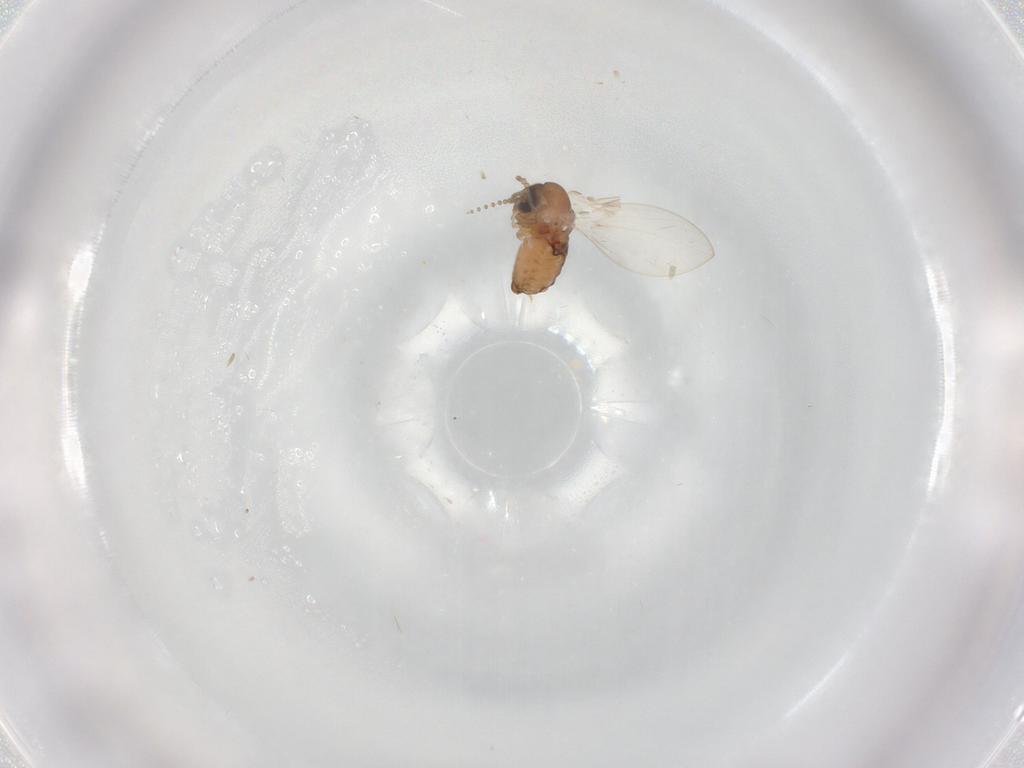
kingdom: Animalia
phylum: Arthropoda
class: Insecta
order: Diptera
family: Psychodidae
